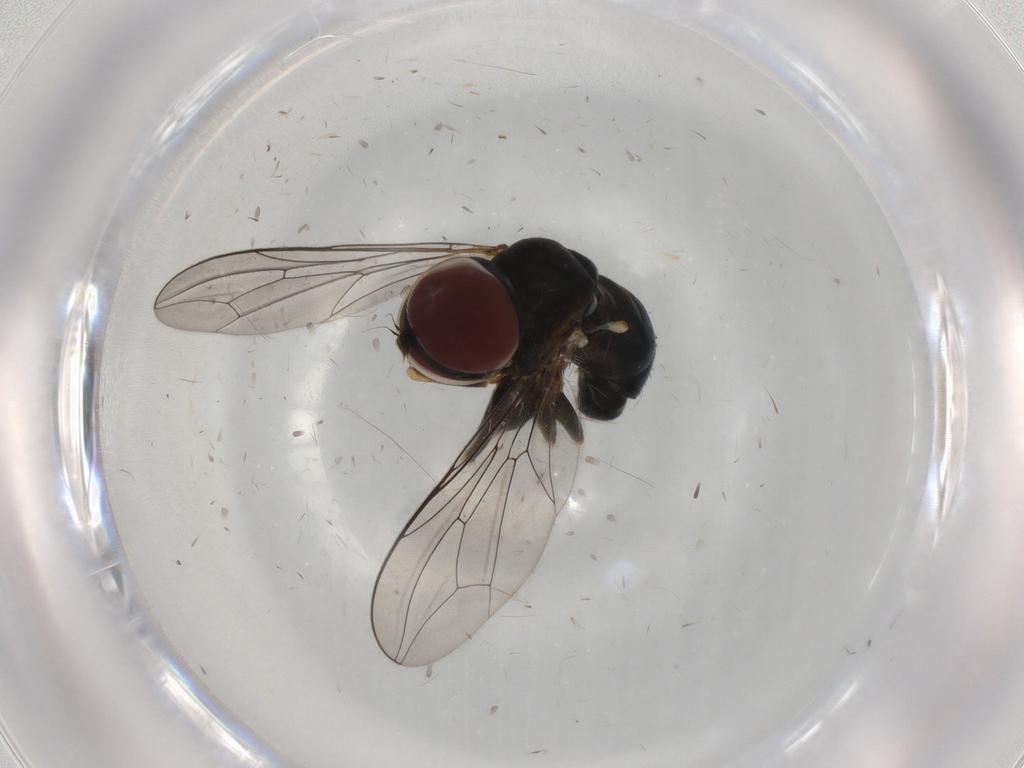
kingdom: Animalia
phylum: Arthropoda
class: Insecta
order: Diptera
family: Pipunculidae
